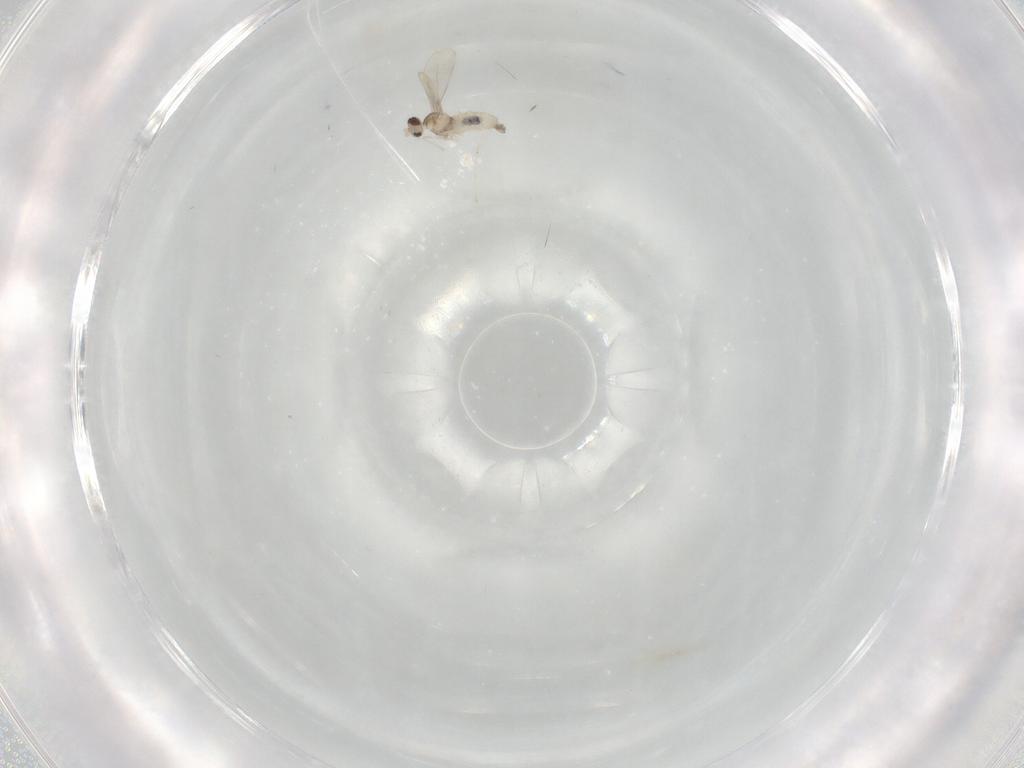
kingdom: Animalia
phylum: Arthropoda
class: Insecta
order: Diptera
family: Cecidomyiidae
